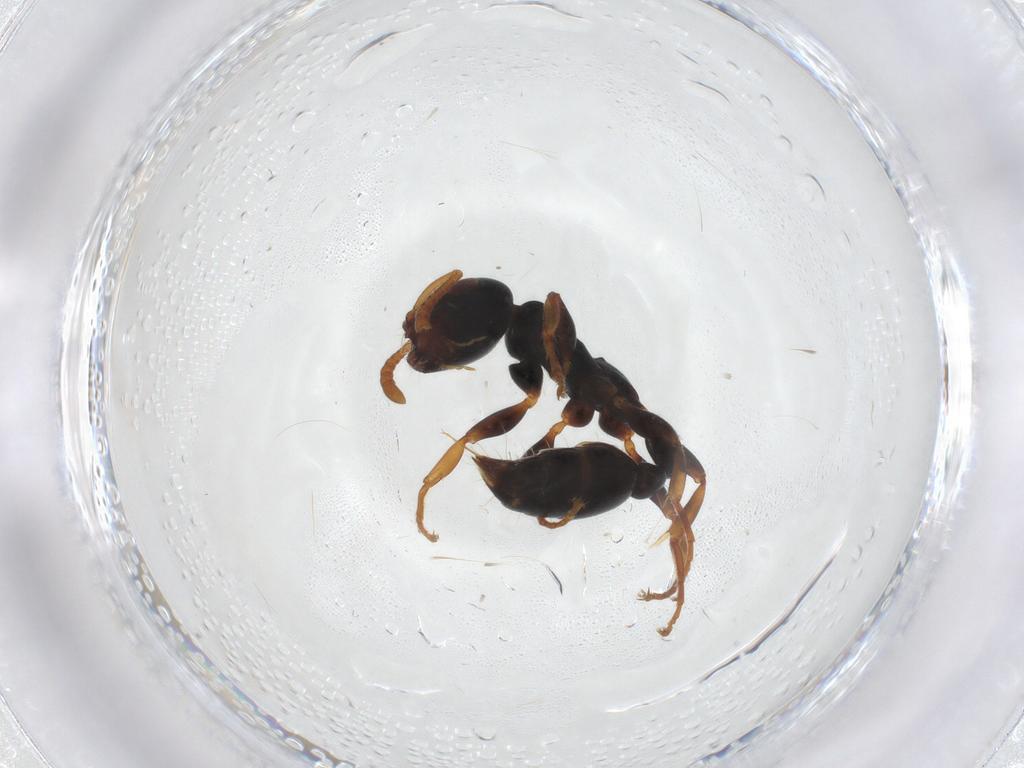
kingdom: Animalia
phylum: Arthropoda
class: Insecta
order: Hymenoptera
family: Formicidae
